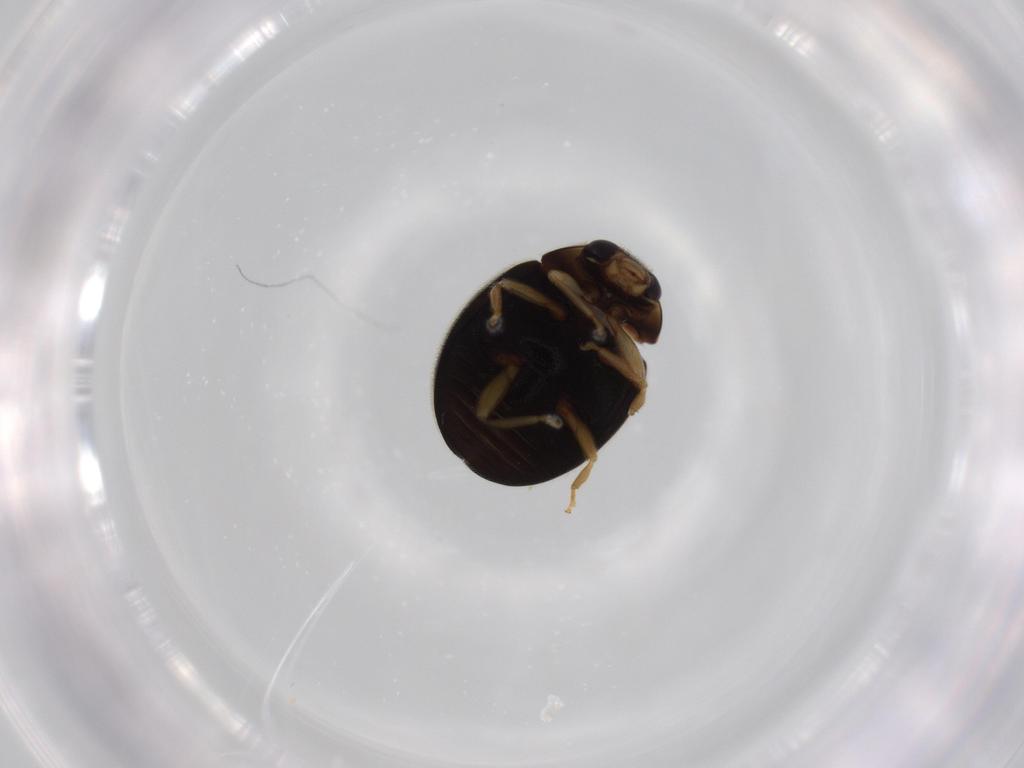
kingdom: Animalia
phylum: Arthropoda
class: Insecta
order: Coleoptera
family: Coccinellidae
